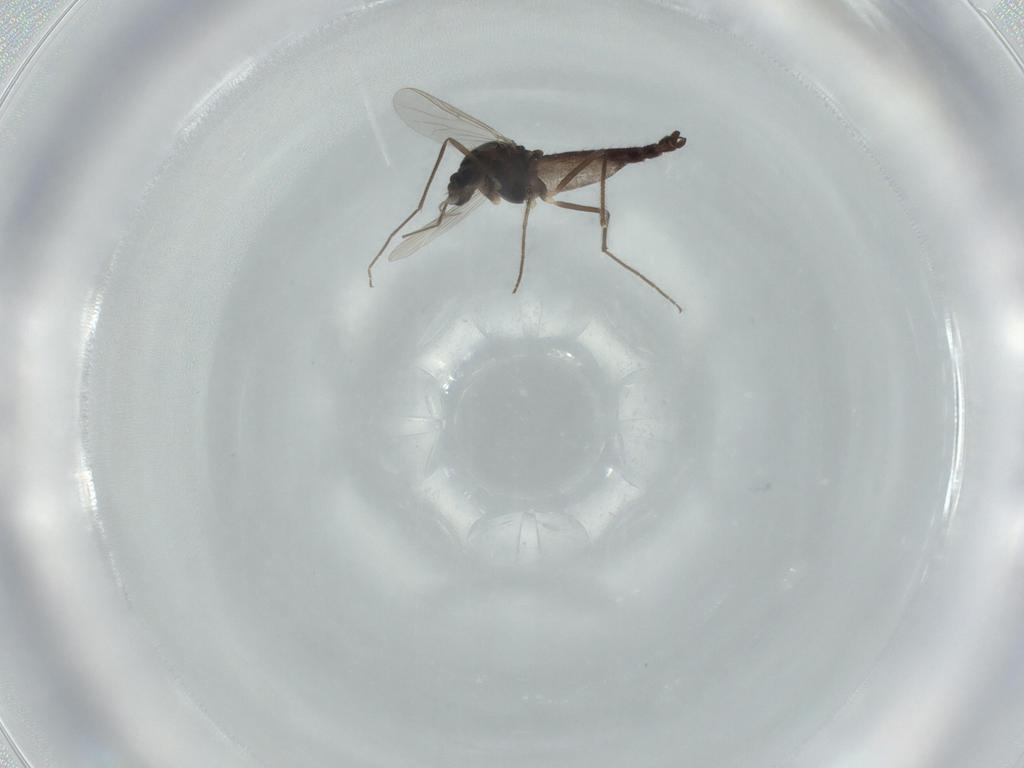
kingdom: Animalia
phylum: Arthropoda
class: Insecta
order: Diptera
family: Chironomidae
